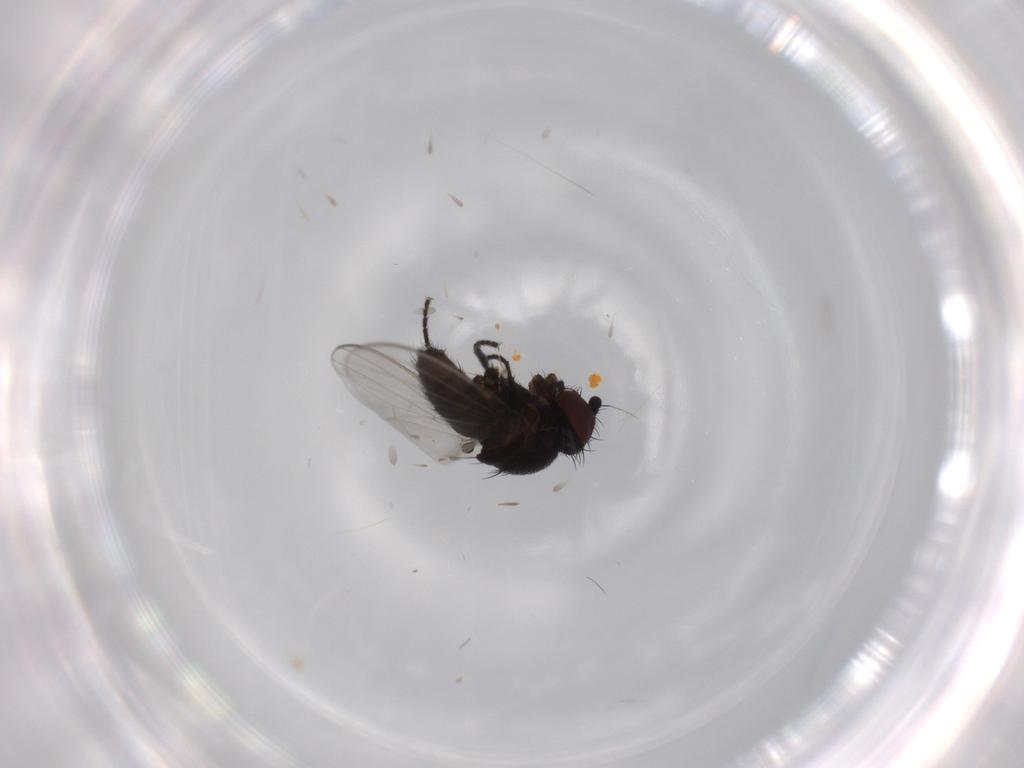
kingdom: Animalia
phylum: Arthropoda
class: Insecta
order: Diptera
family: Milichiidae
